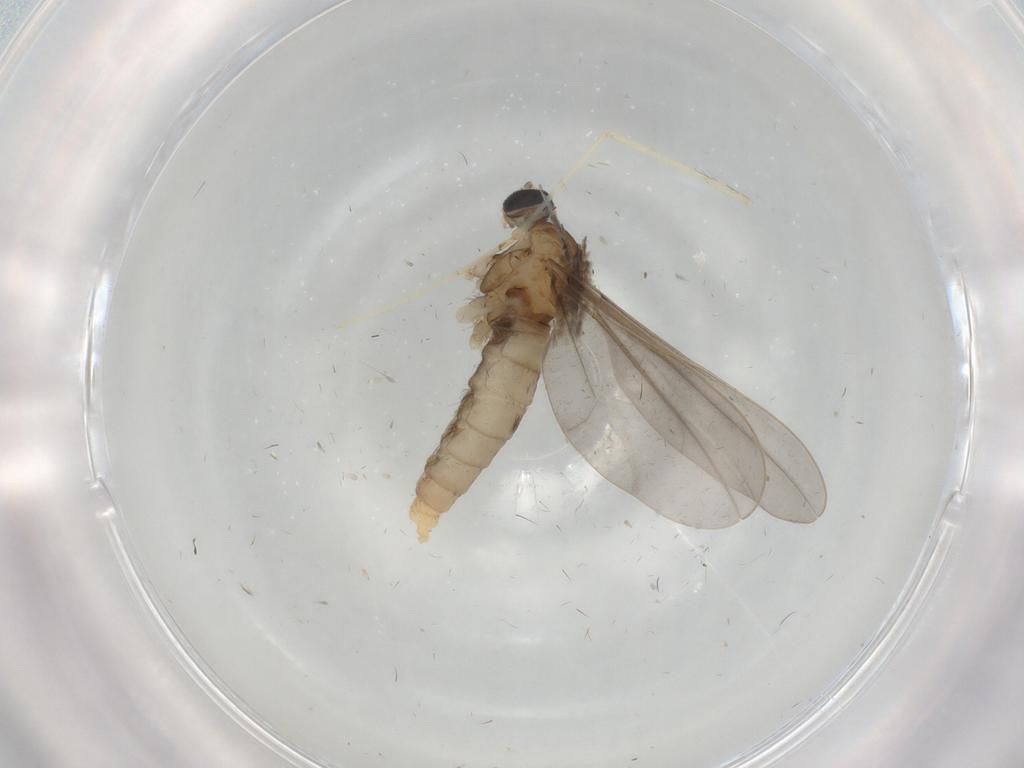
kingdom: Animalia
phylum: Arthropoda
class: Insecta
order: Diptera
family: Cecidomyiidae
